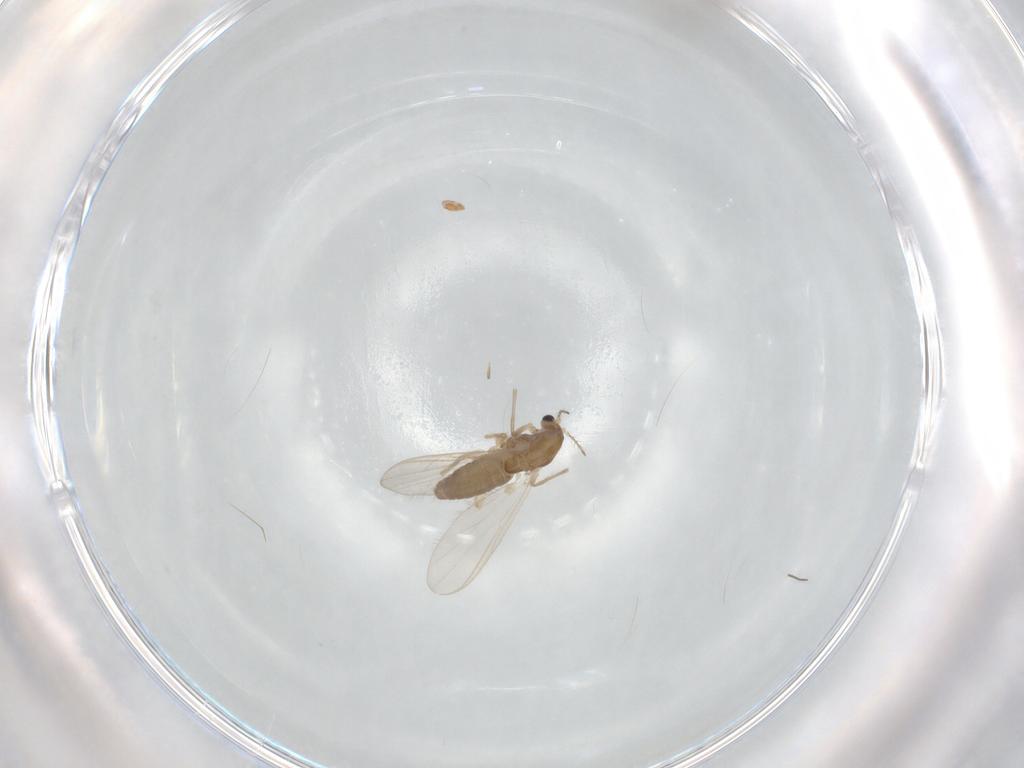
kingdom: Animalia
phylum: Arthropoda
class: Insecta
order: Diptera
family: Chironomidae
